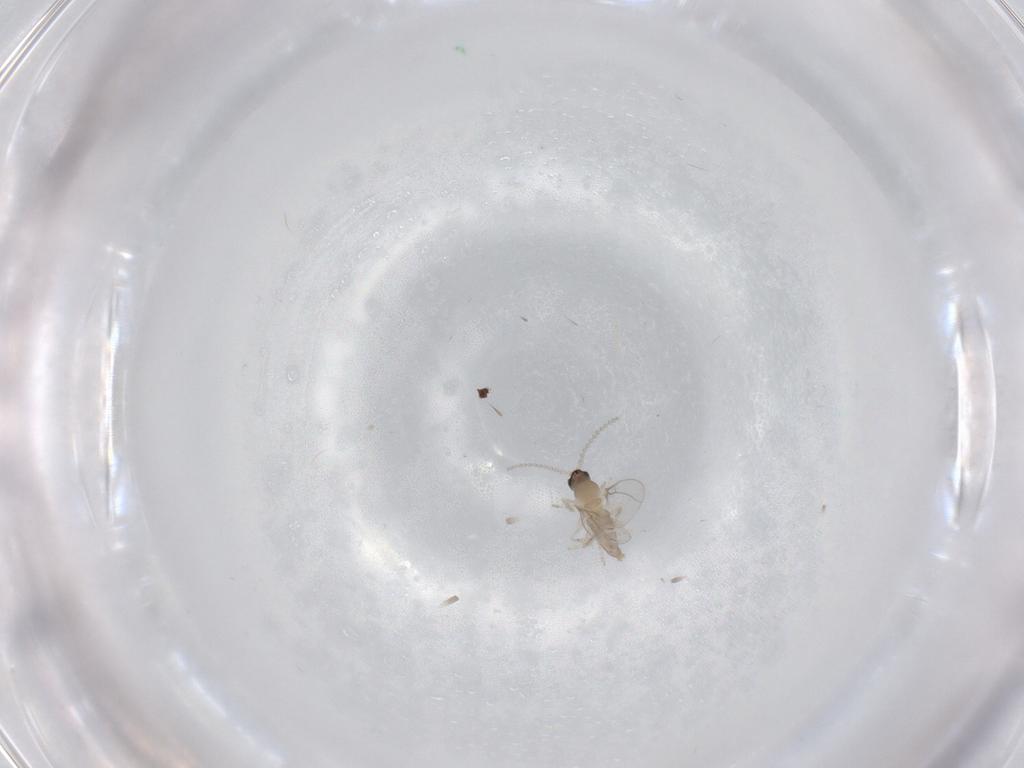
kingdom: Animalia
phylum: Arthropoda
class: Insecta
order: Diptera
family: Cecidomyiidae
